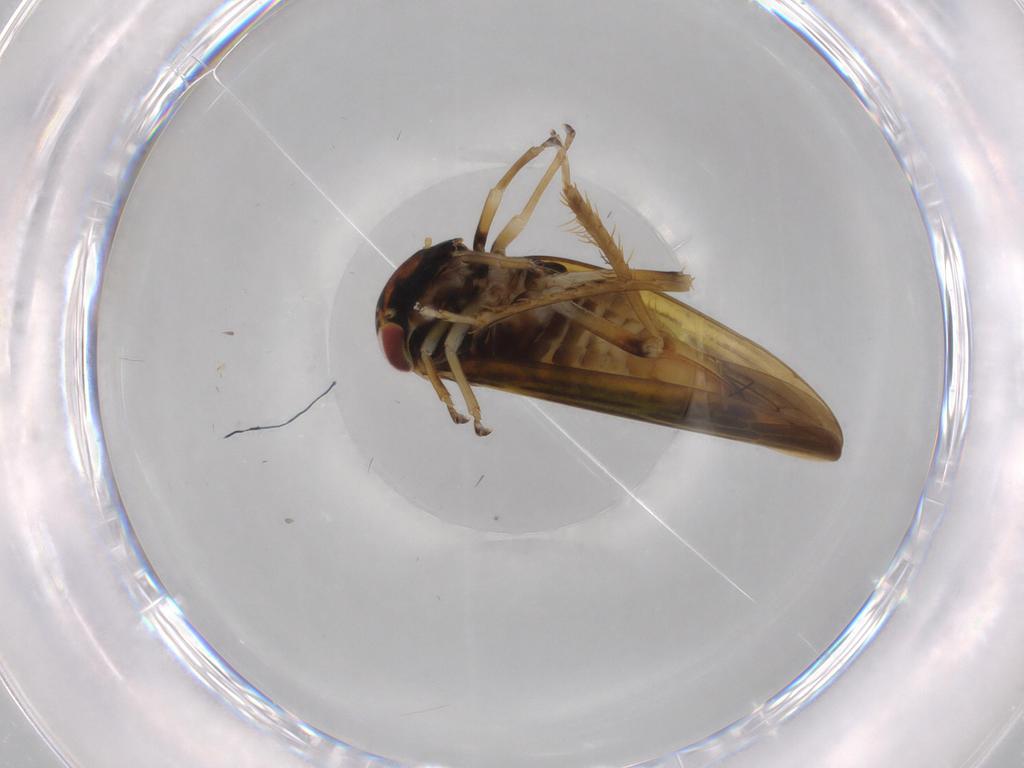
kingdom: Animalia
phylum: Arthropoda
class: Insecta
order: Hemiptera
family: Cicadellidae
